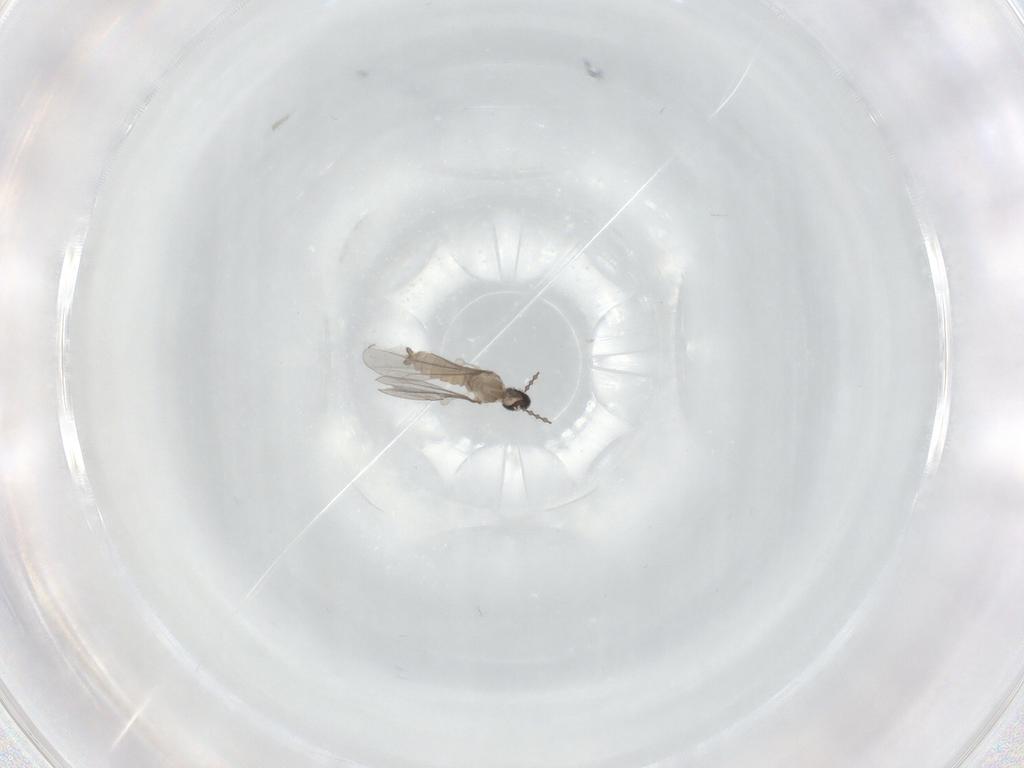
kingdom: Animalia
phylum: Arthropoda
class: Insecta
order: Diptera
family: Cecidomyiidae
